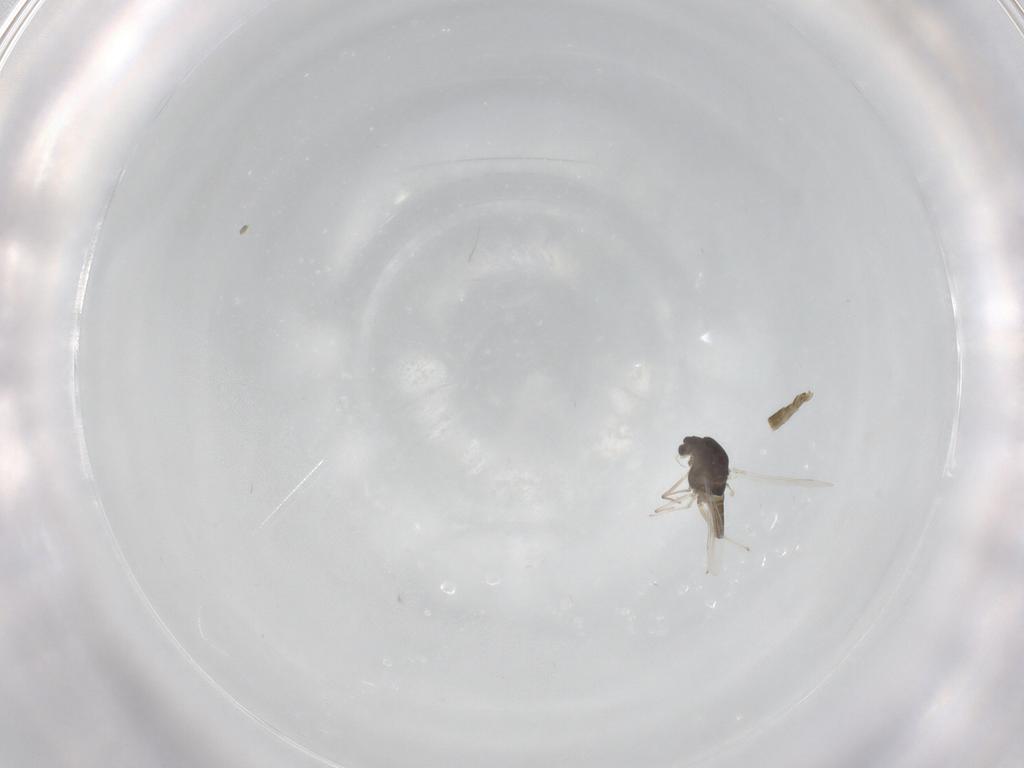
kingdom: Animalia
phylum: Arthropoda
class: Insecta
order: Diptera
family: Chironomidae
